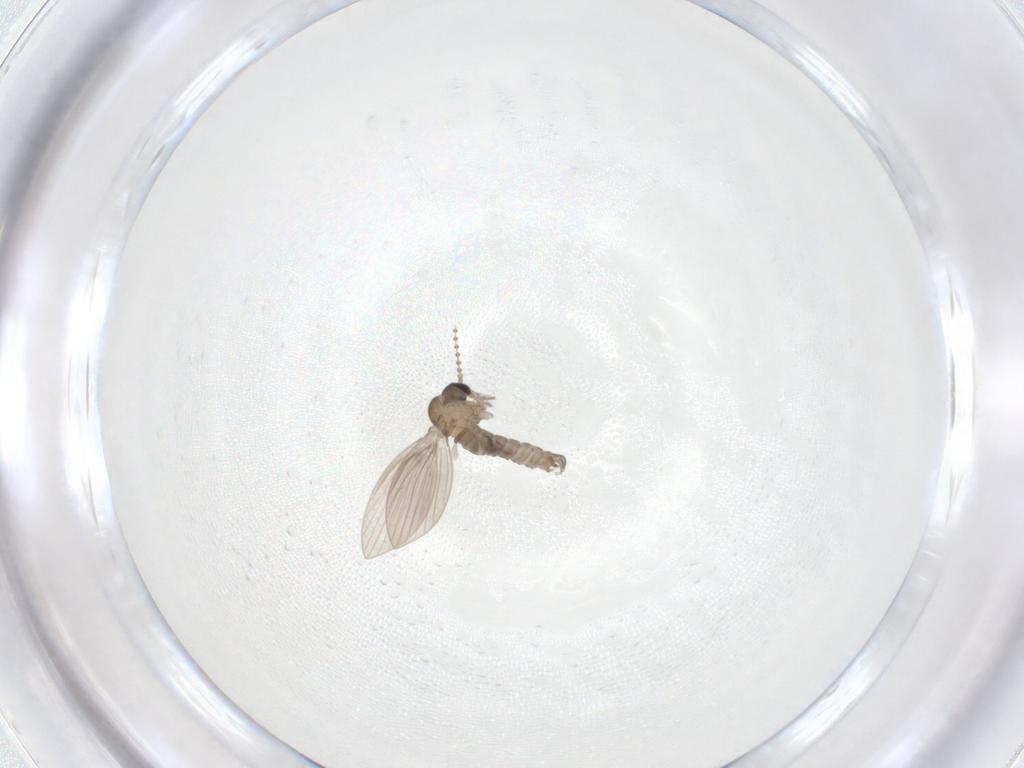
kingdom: Animalia
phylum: Arthropoda
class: Insecta
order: Diptera
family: Psychodidae
